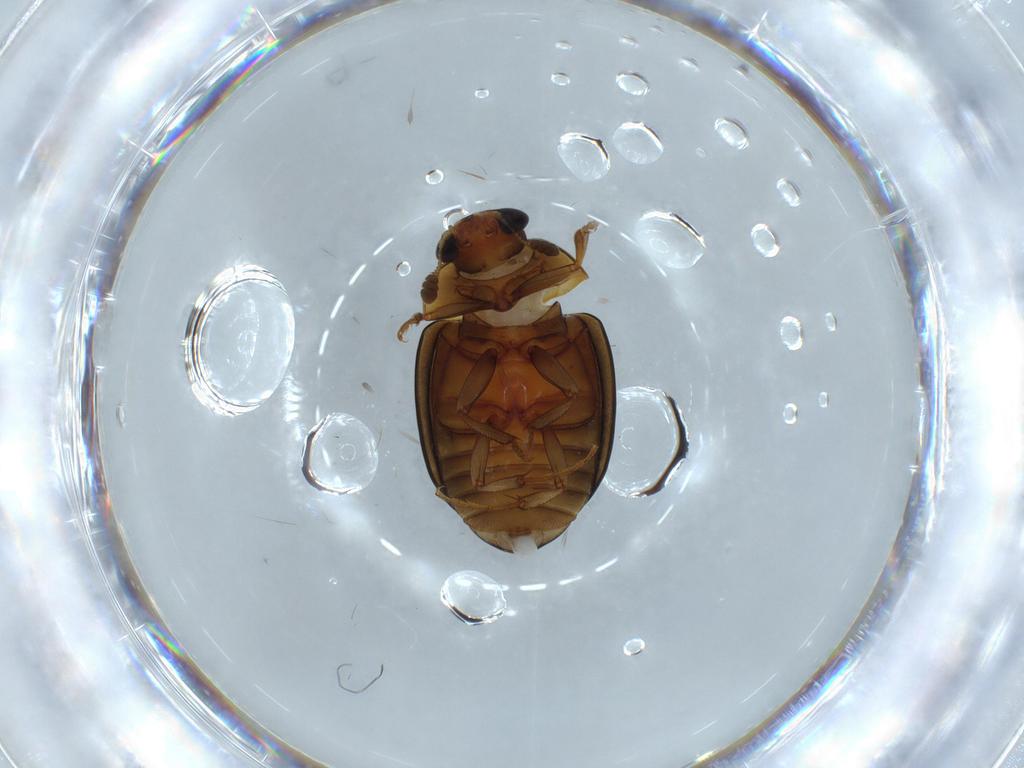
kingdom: Animalia
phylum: Arthropoda
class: Insecta
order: Coleoptera
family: Nitidulidae
